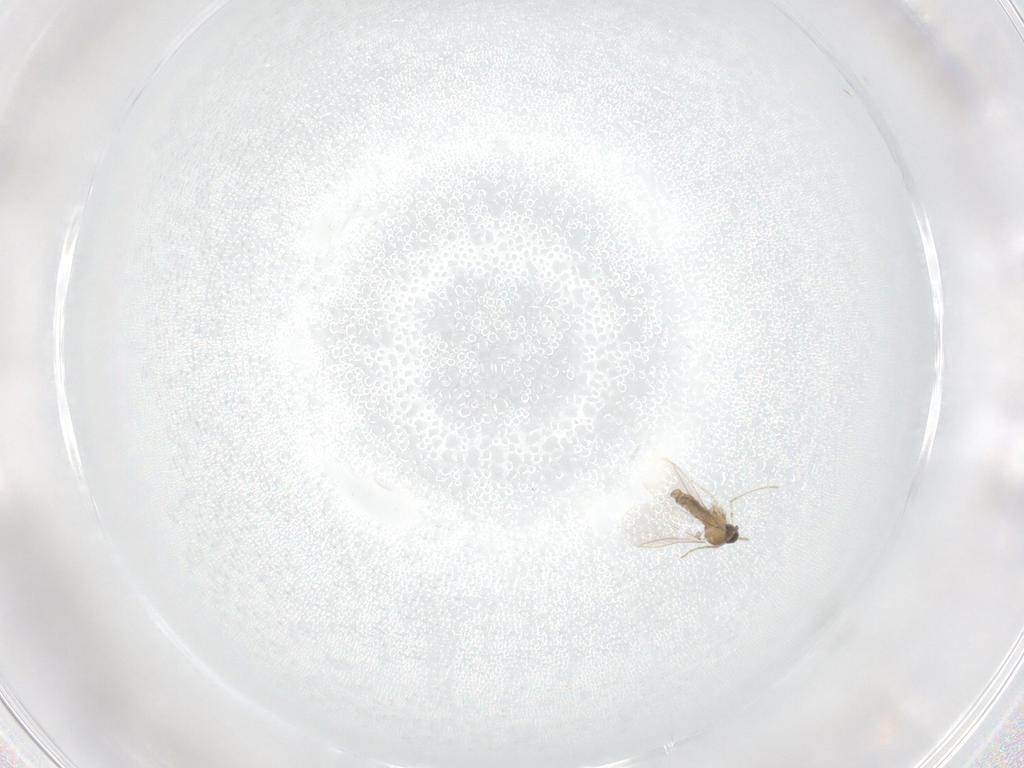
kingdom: Animalia
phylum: Arthropoda
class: Insecta
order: Diptera
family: Cecidomyiidae
